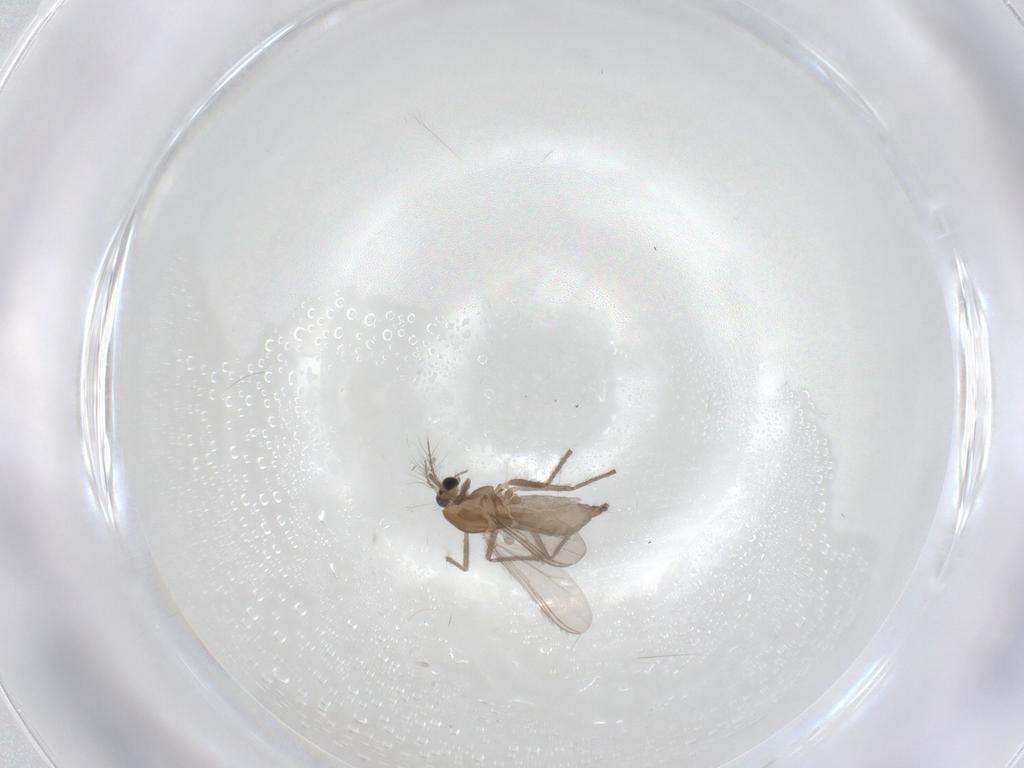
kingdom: Animalia
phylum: Arthropoda
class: Insecta
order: Diptera
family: Chironomidae
